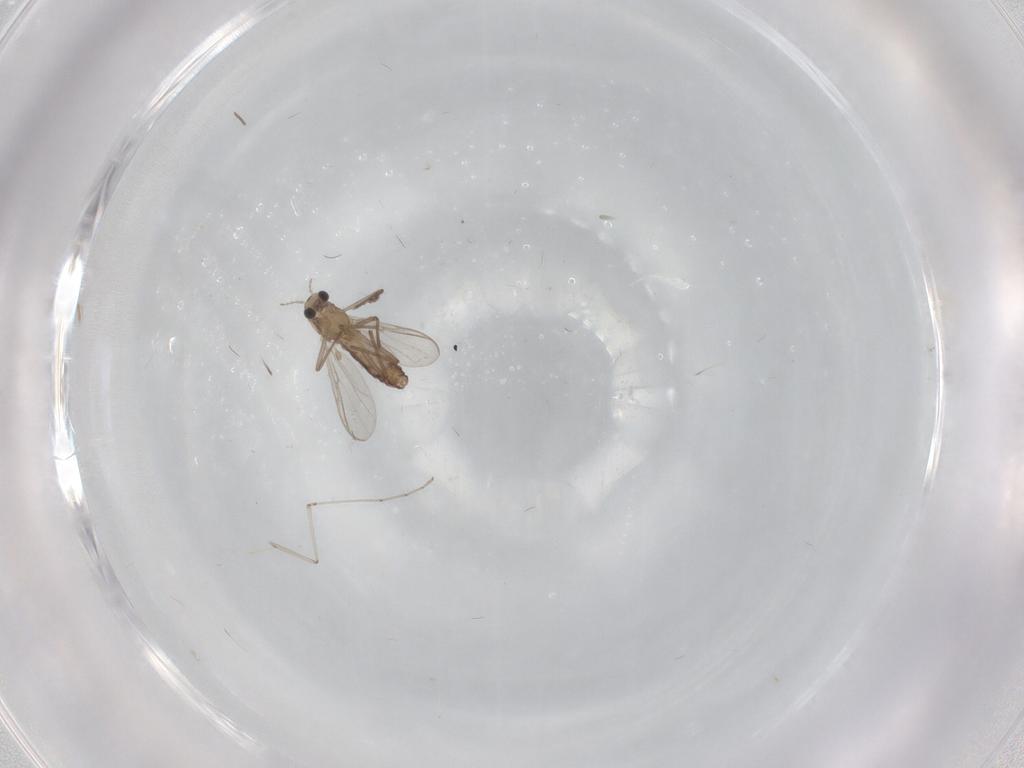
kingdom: Animalia
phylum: Arthropoda
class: Insecta
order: Diptera
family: Chironomidae
